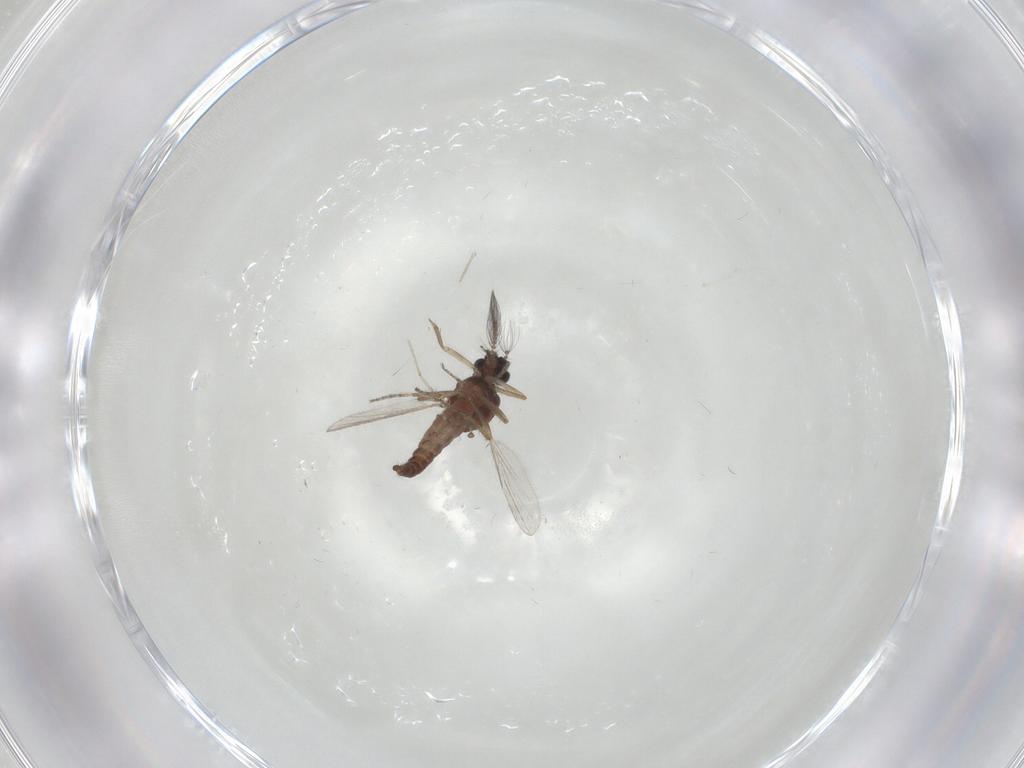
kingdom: Animalia
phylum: Arthropoda
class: Insecta
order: Diptera
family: Ceratopogonidae
